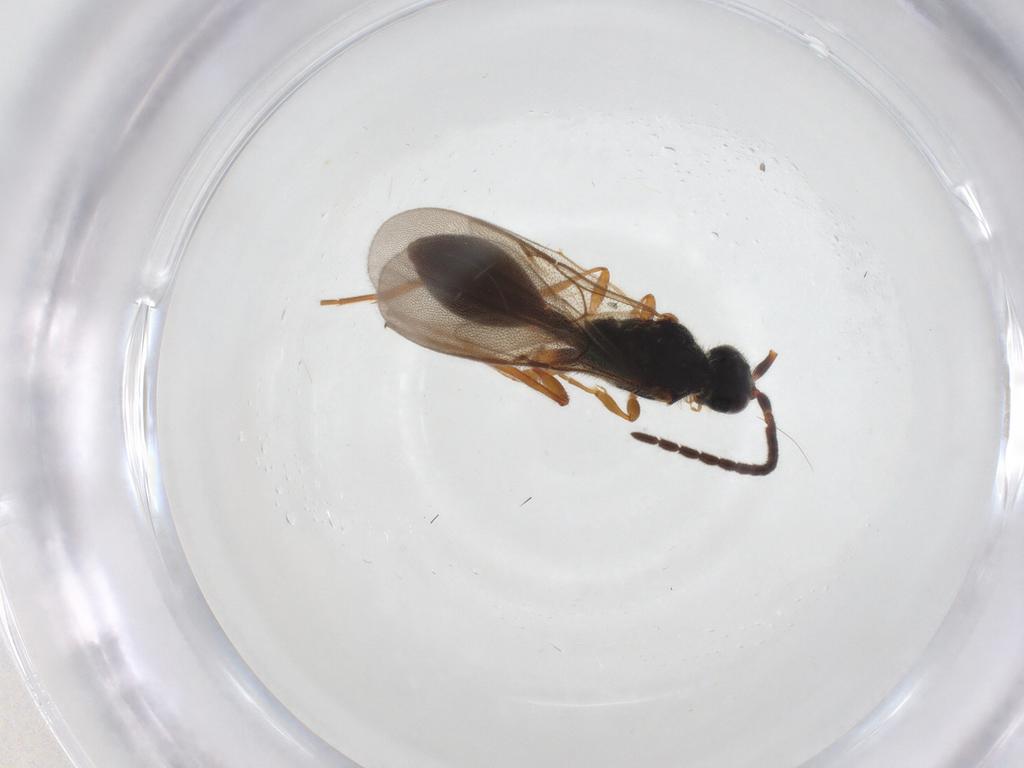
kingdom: Animalia
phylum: Arthropoda
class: Insecta
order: Hymenoptera
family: Diapriidae
